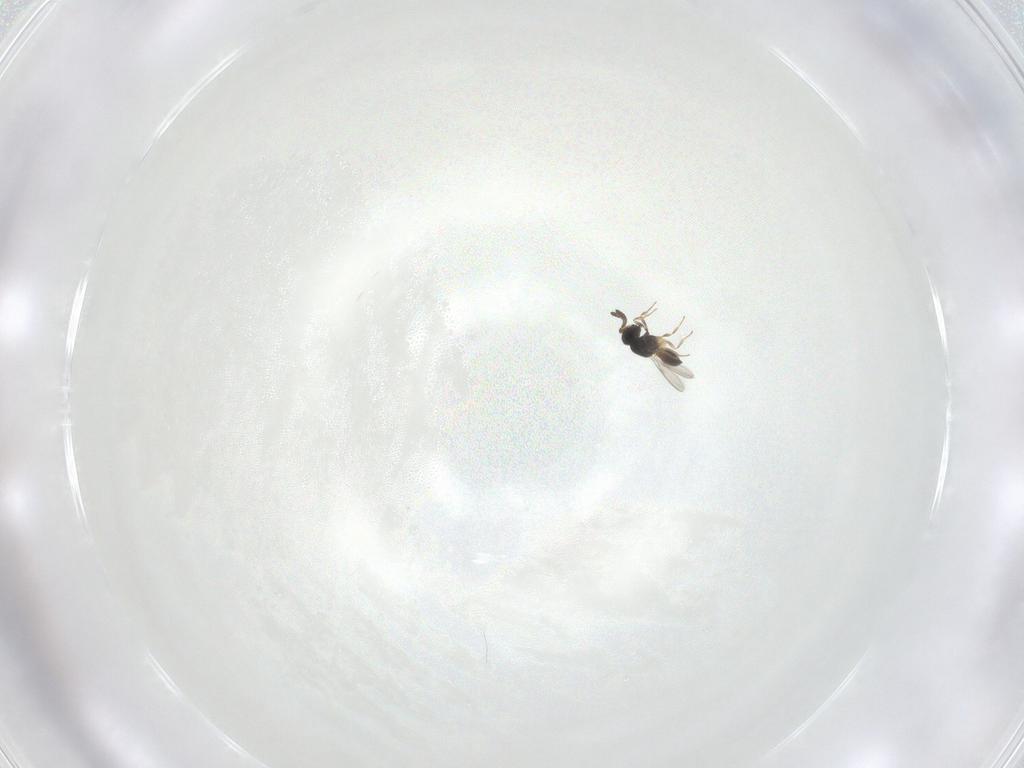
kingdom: Animalia
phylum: Arthropoda
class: Insecta
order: Hymenoptera
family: Scelionidae
